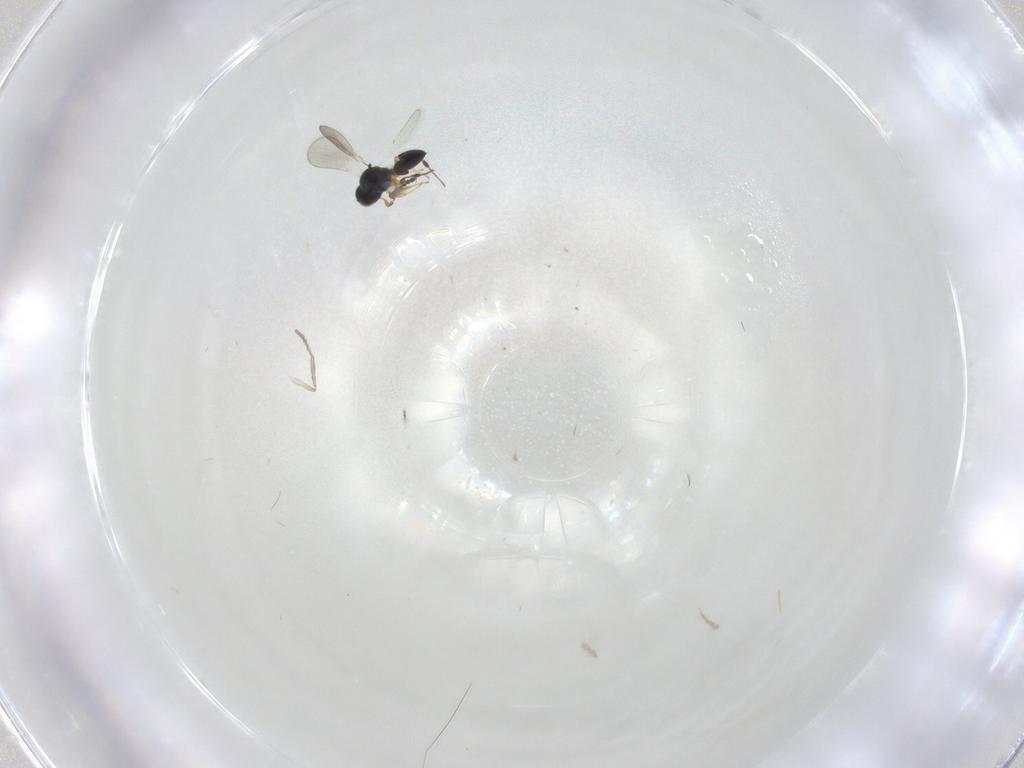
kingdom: Animalia
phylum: Arthropoda
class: Insecta
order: Hymenoptera
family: Platygastridae
